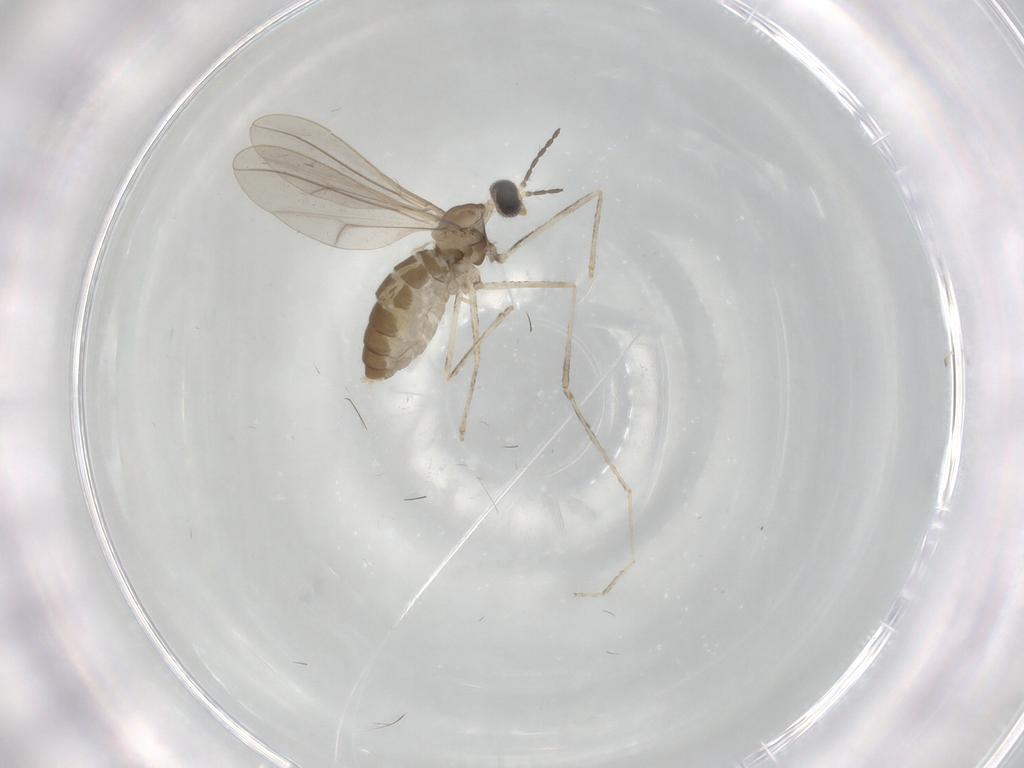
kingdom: Animalia
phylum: Arthropoda
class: Insecta
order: Diptera
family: Cecidomyiidae
